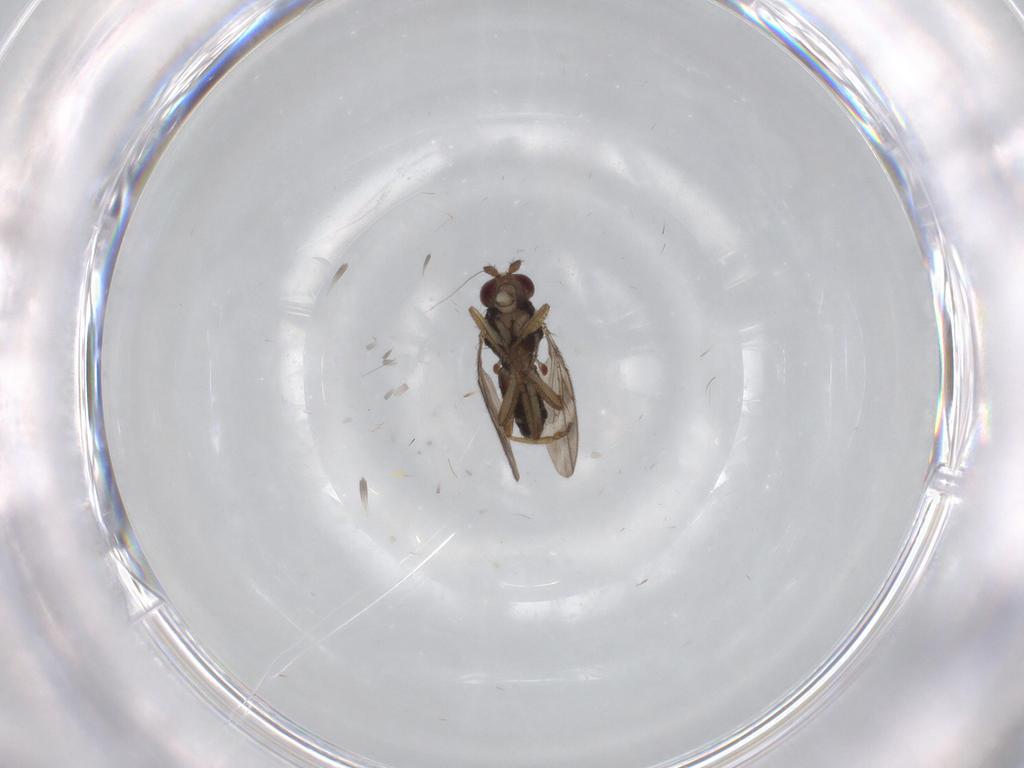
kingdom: Animalia
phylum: Arthropoda
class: Insecta
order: Diptera
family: Sphaeroceridae
